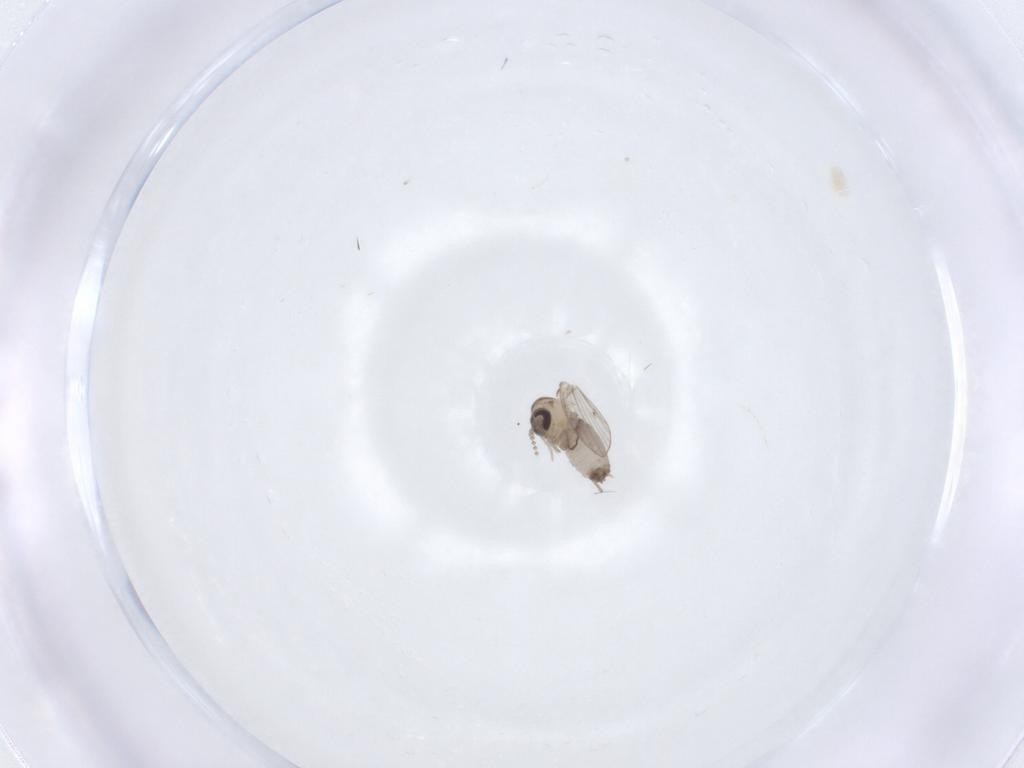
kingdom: Animalia
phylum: Arthropoda
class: Insecta
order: Diptera
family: Psychodidae
